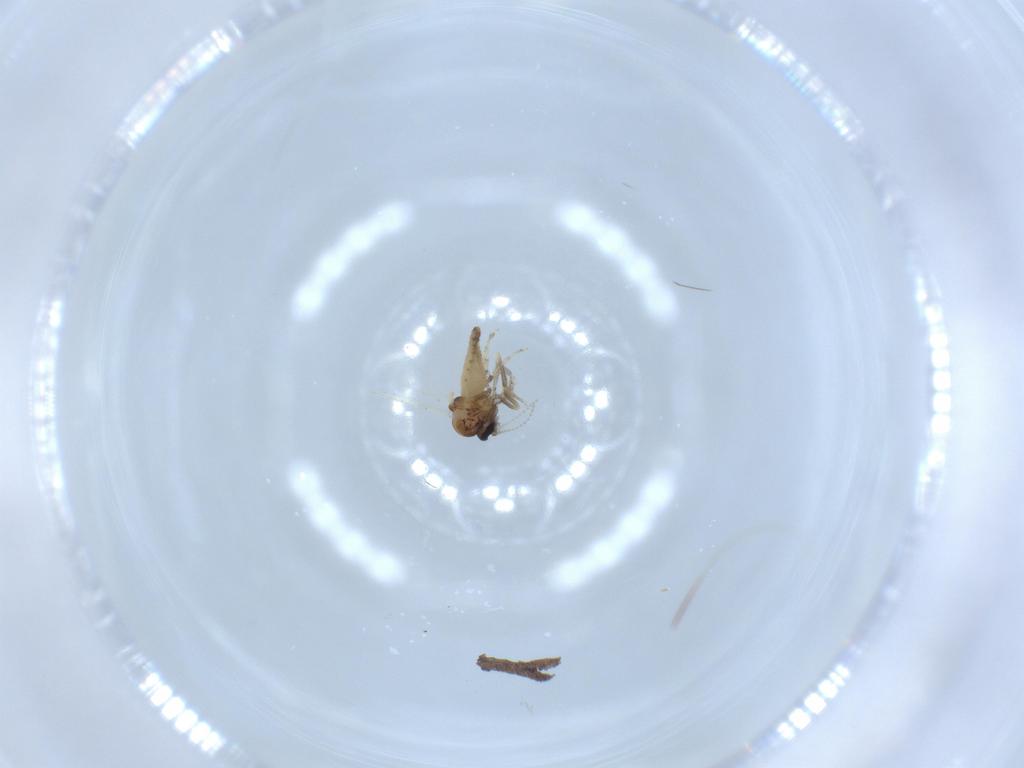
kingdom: Animalia
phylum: Arthropoda
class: Insecta
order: Diptera
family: Ceratopogonidae
